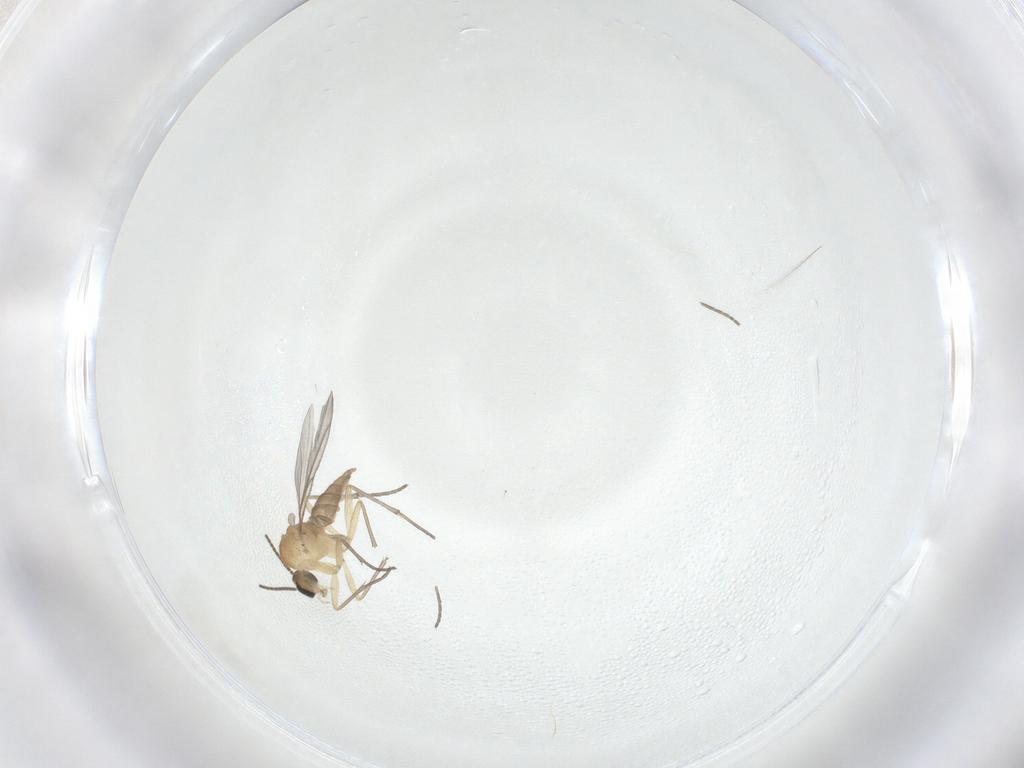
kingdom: Animalia
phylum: Arthropoda
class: Insecta
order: Diptera
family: Sciaridae
